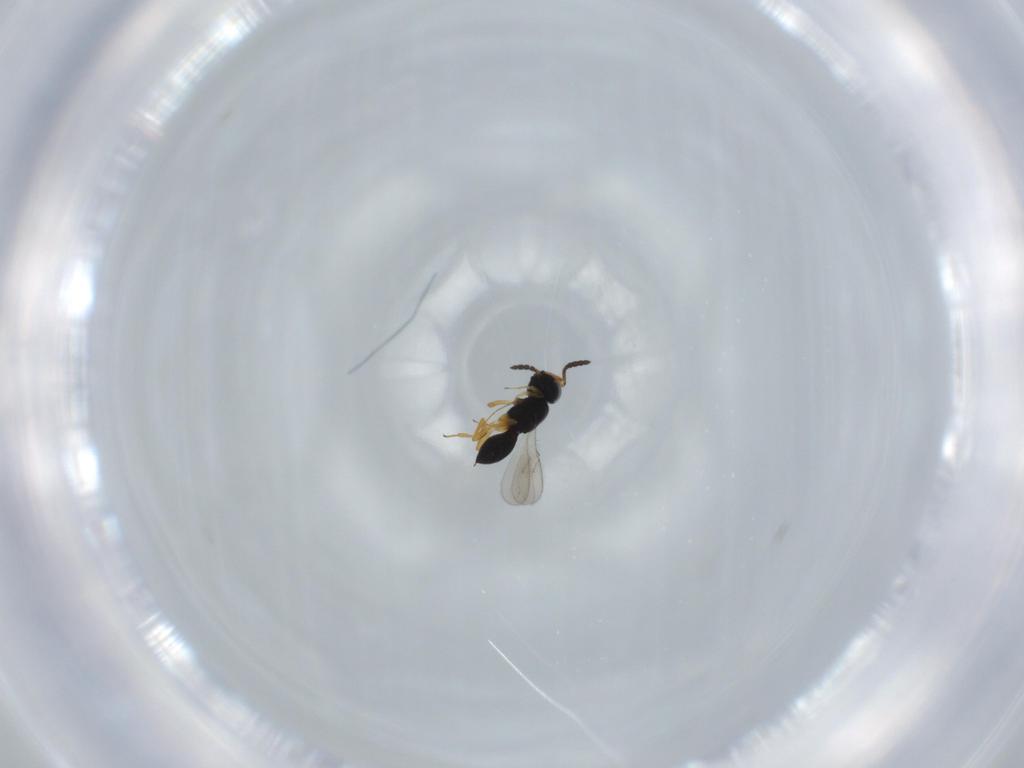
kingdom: Animalia
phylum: Arthropoda
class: Insecta
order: Hymenoptera
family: Scelionidae
